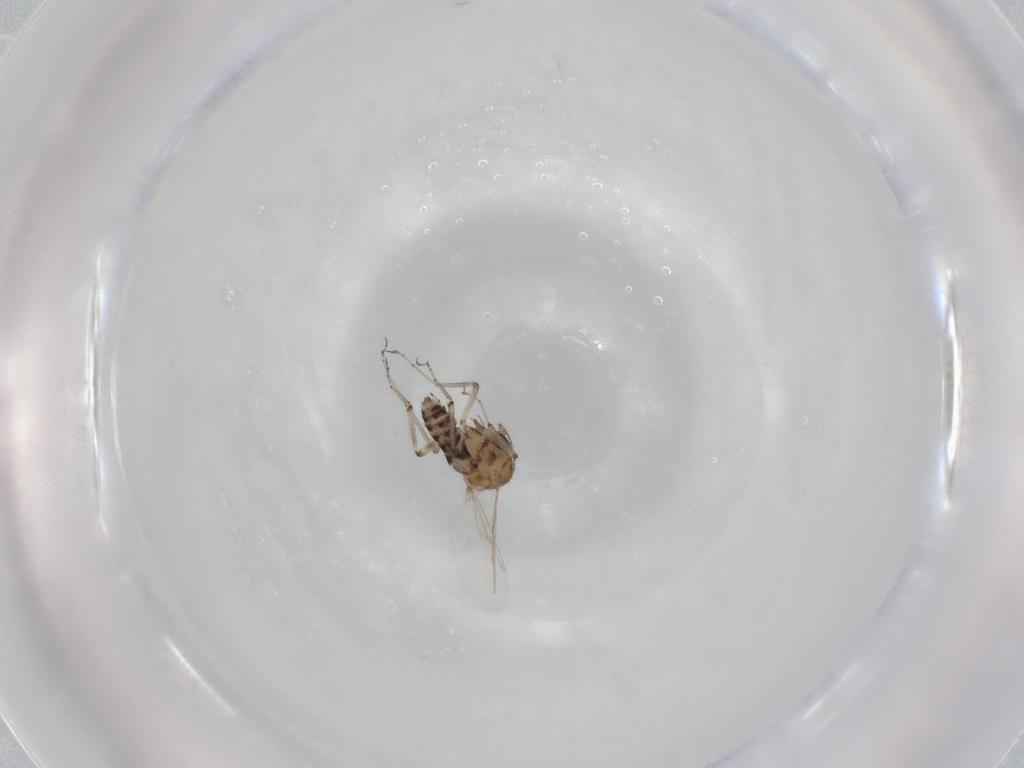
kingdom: Animalia
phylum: Arthropoda
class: Insecta
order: Diptera
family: Ceratopogonidae
